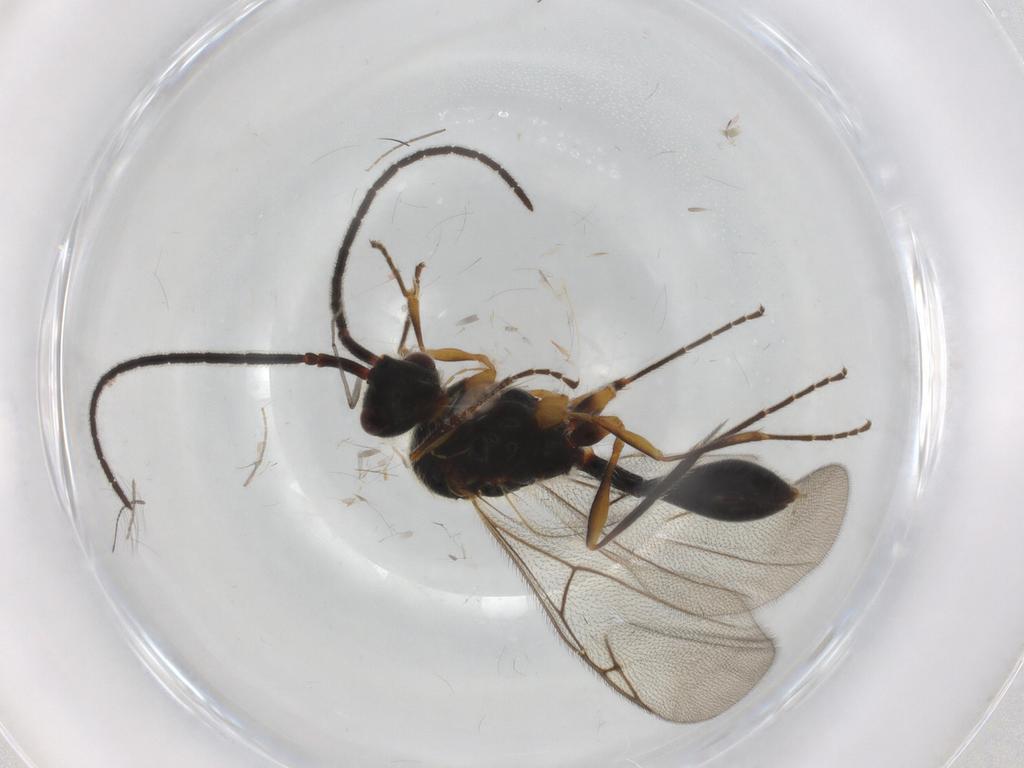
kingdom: Animalia
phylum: Arthropoda
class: Insecta
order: Hymenoptera
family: Diapriidae
